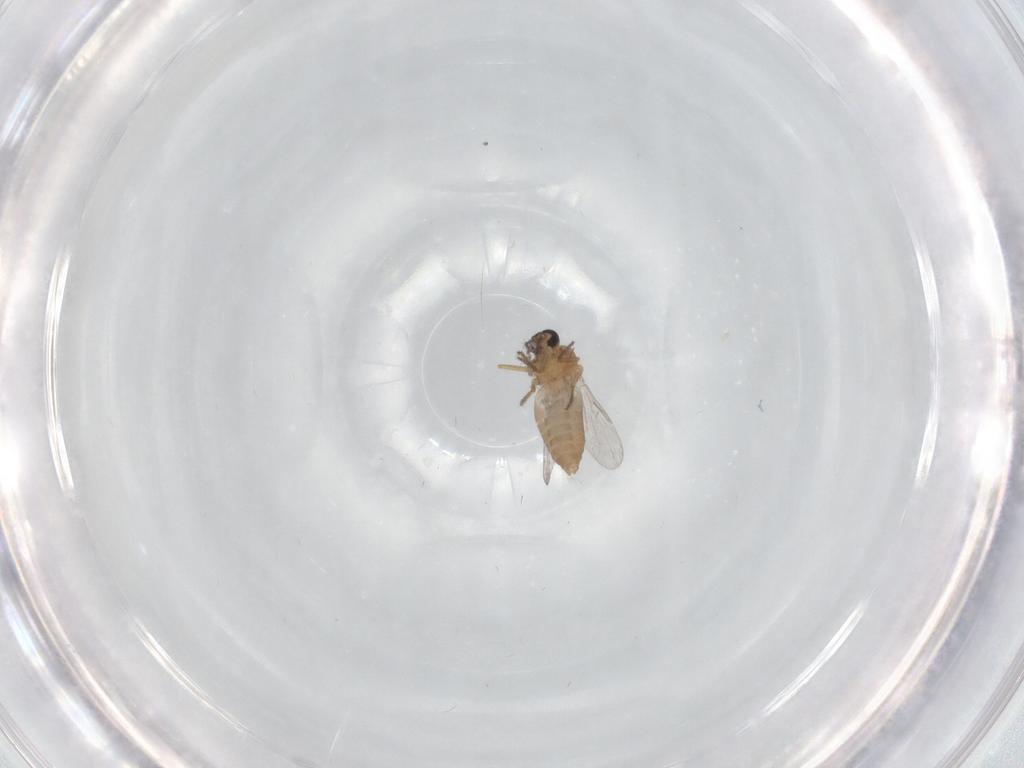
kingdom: Animalia
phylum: Arthropoda
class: Insecta
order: Diptera
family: Ceratopogonidae
